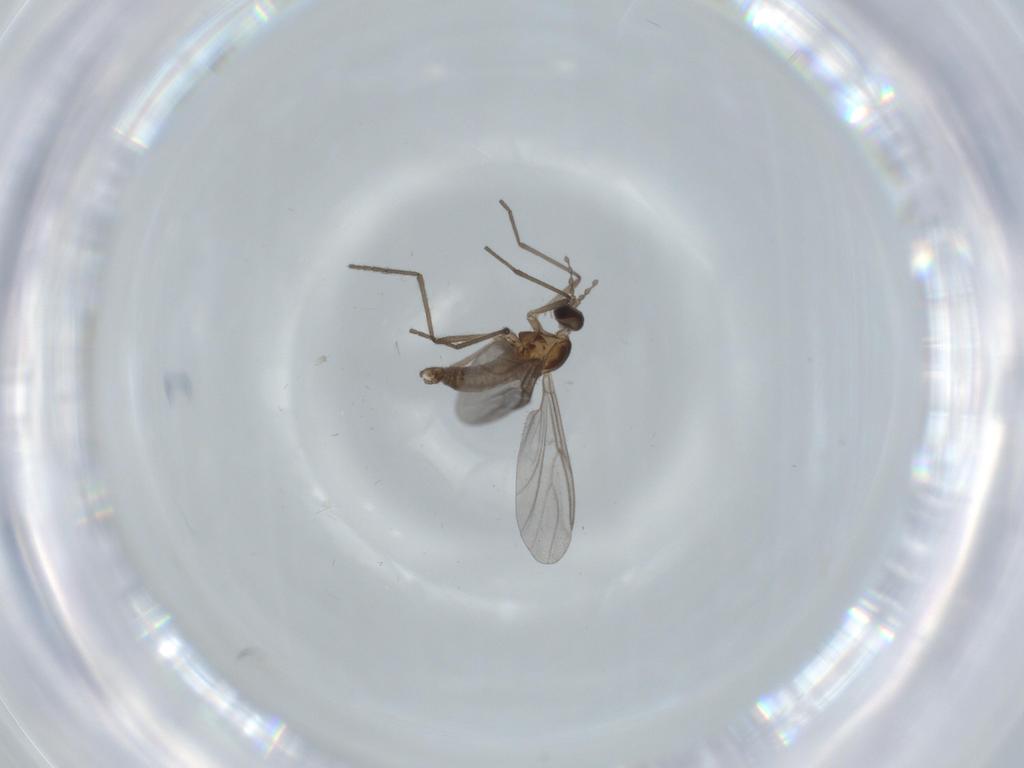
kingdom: Animalia
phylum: Arthropoda
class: Insecta
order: Diptera
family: Cecidomyiidae
